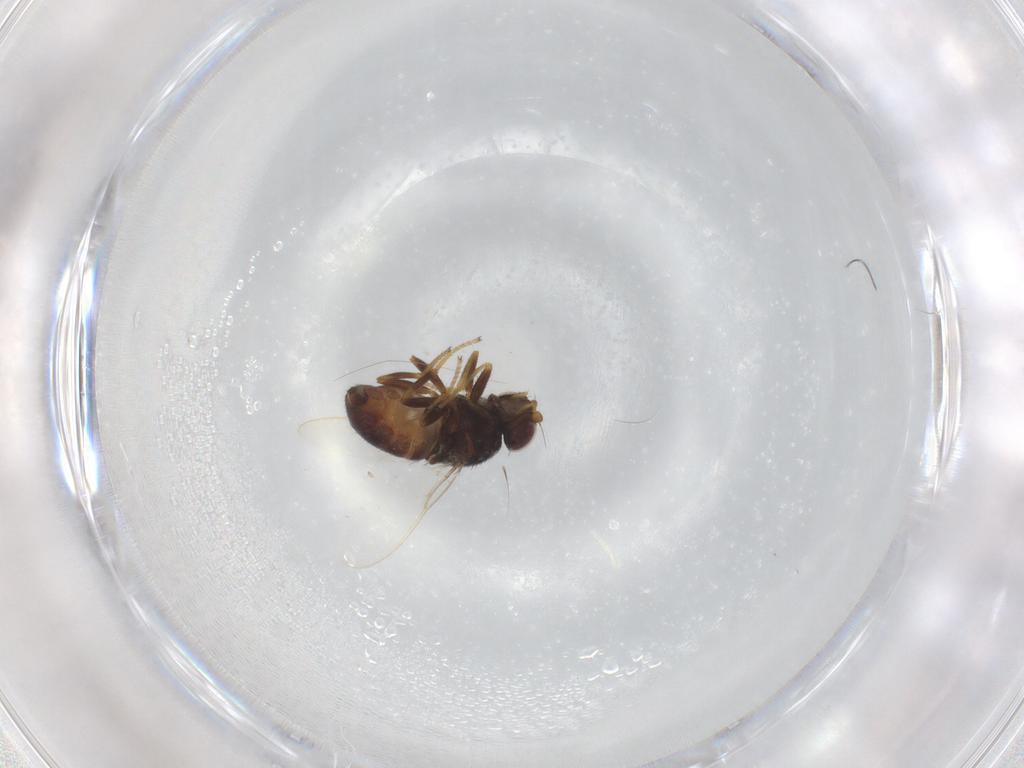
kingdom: Animalia
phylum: Arthropoda
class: Insecta
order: Diptera
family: Chloropidae
